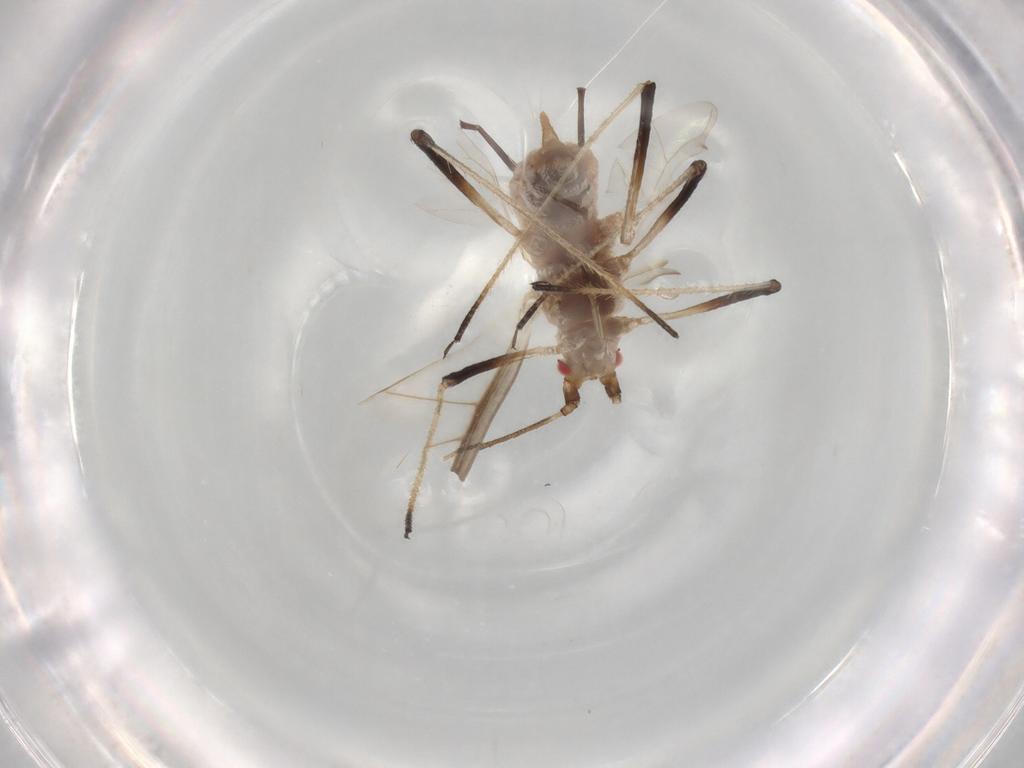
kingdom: Animalia
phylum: Arthropoda
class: Insecta
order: Hemiptera
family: Aphididae
